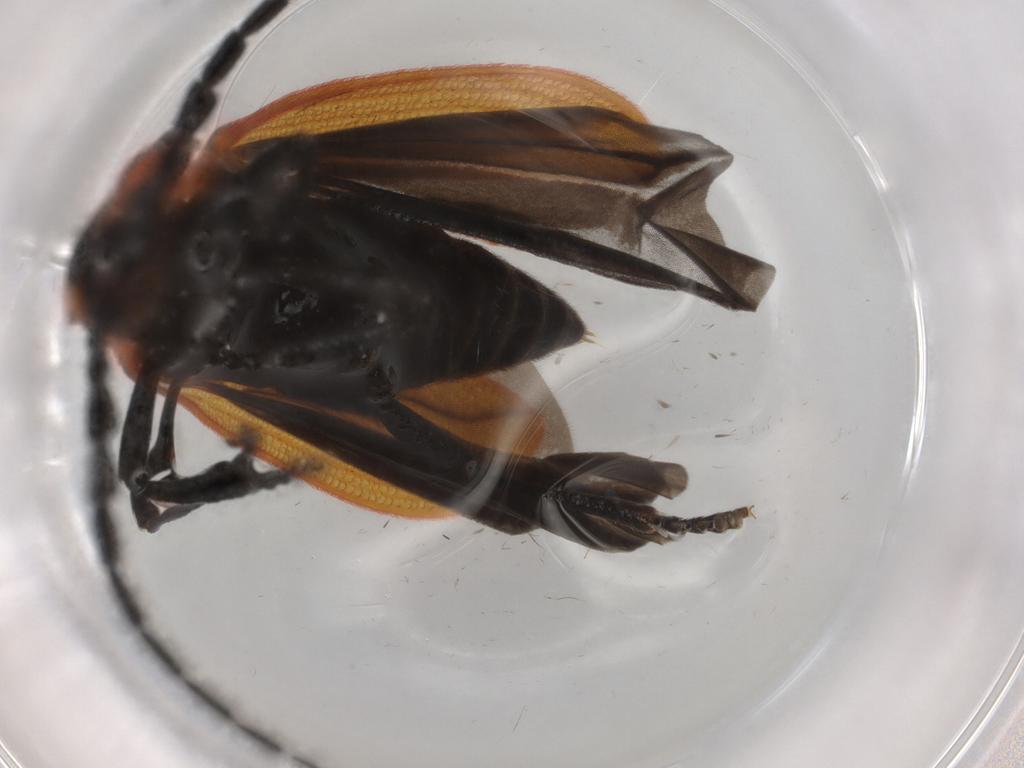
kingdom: Animalia
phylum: Arthropoda
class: Insecta
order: Coleoptera
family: Lycidae
